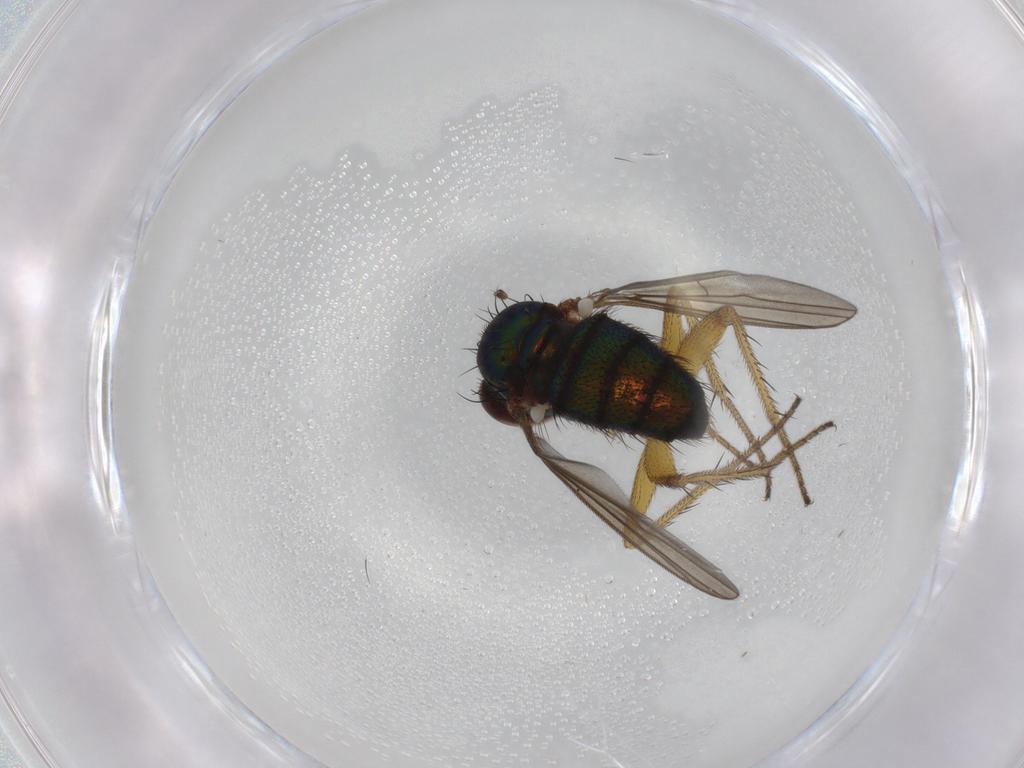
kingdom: Animalia
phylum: Arthropoda
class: Insecta
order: Diptera
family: Dolichopodidae
